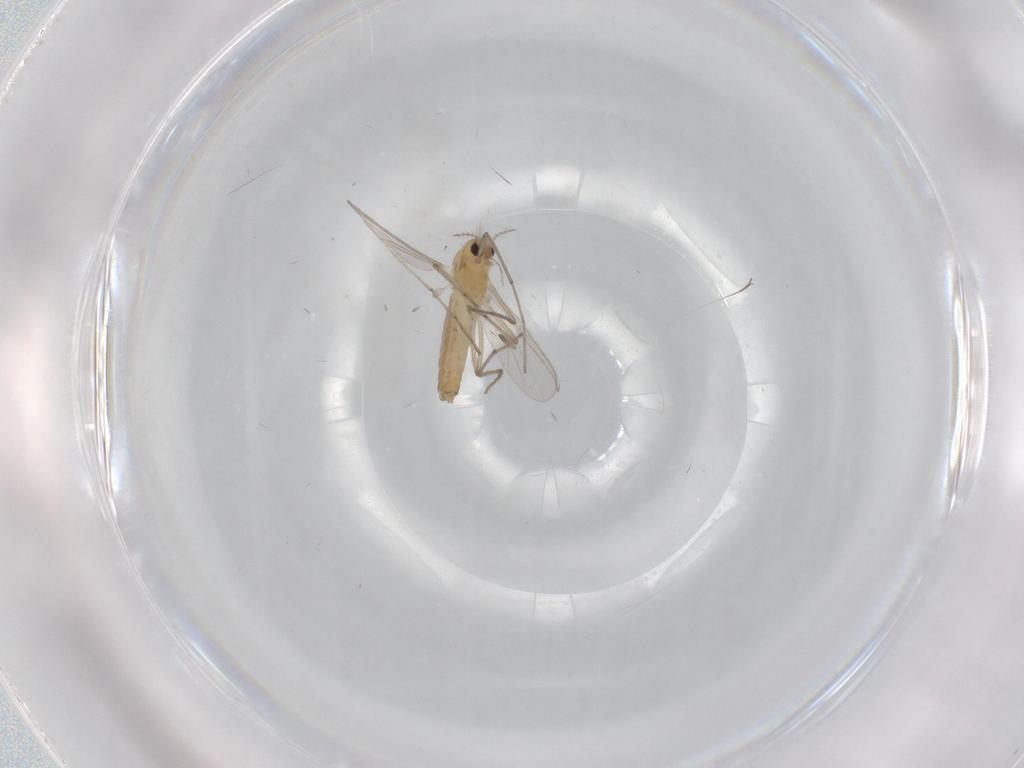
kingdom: Animalia
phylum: Arthropoda
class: Insecta
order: Diptera
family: Chironomidae
